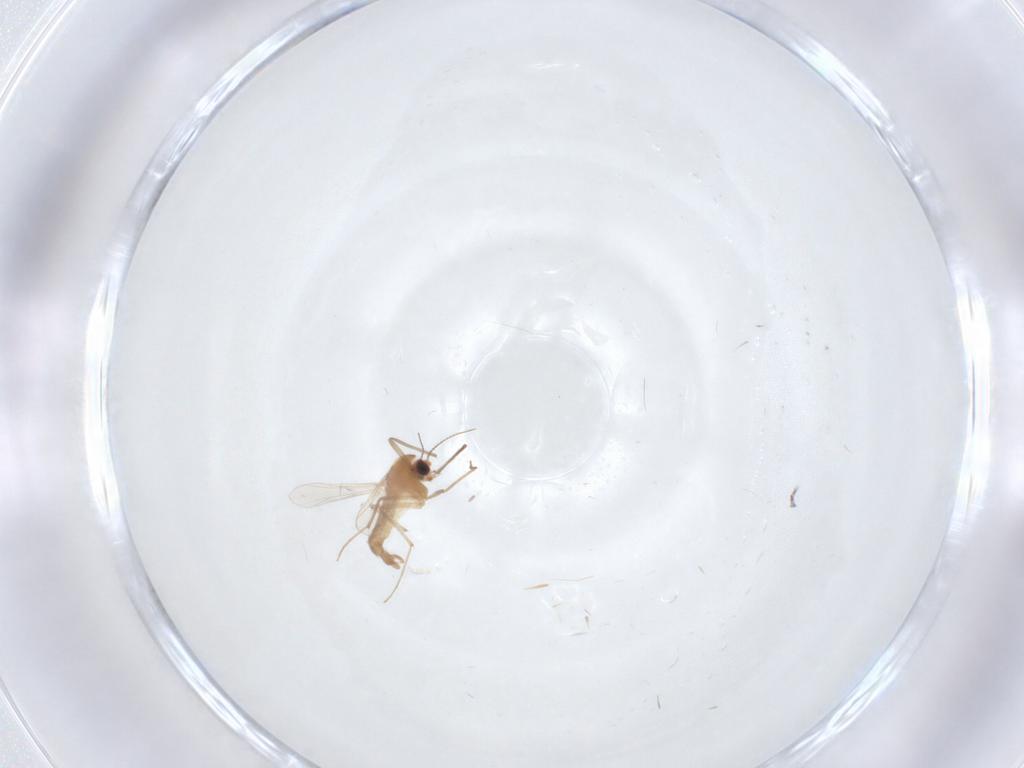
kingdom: Animalia
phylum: Arthropoda
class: Insecta
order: Diptera
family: Chironomidae
